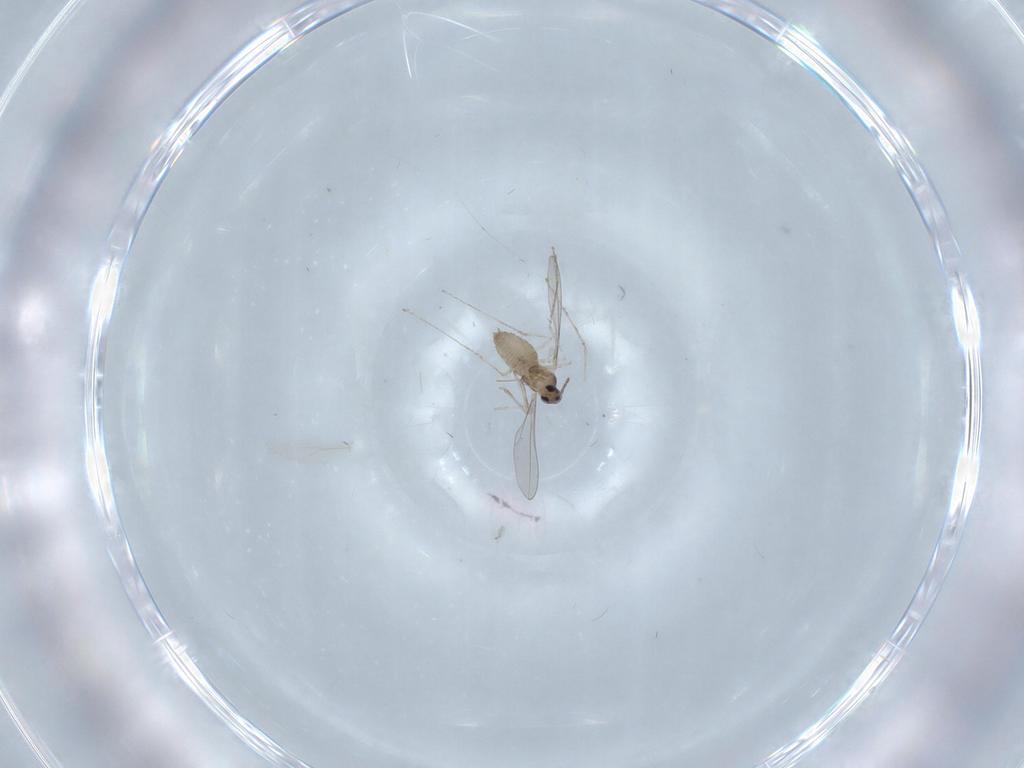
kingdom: Animalia
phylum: Arthropoda
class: Insecta
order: Diptera
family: Cecidomyiidae
